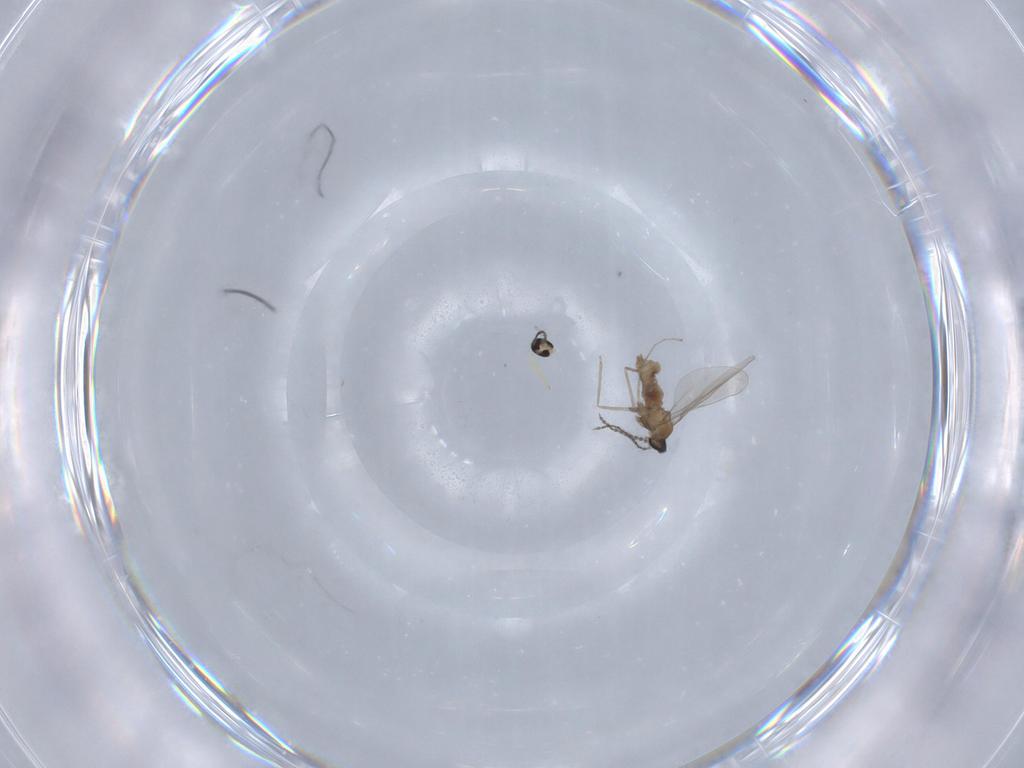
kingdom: Animalia
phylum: Arthropoda
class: Insecta
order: Diptera
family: Cecidomyiidae
